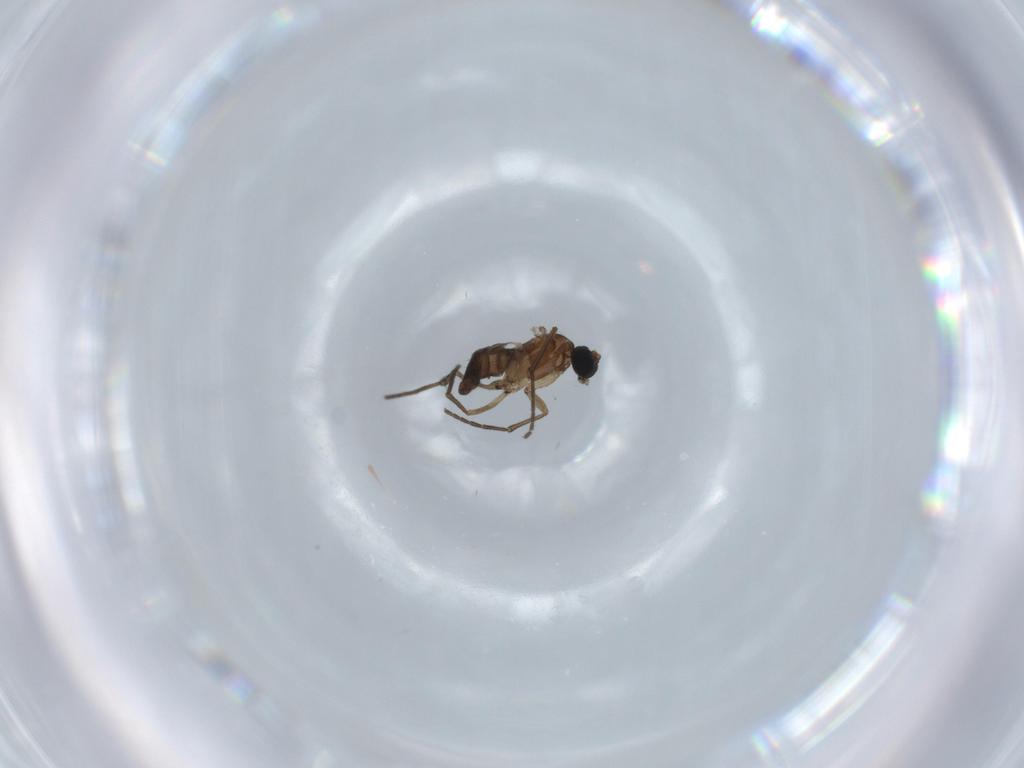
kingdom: Animalia
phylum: Arthropoda
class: Insecta
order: Diptera
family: Sciaridae
